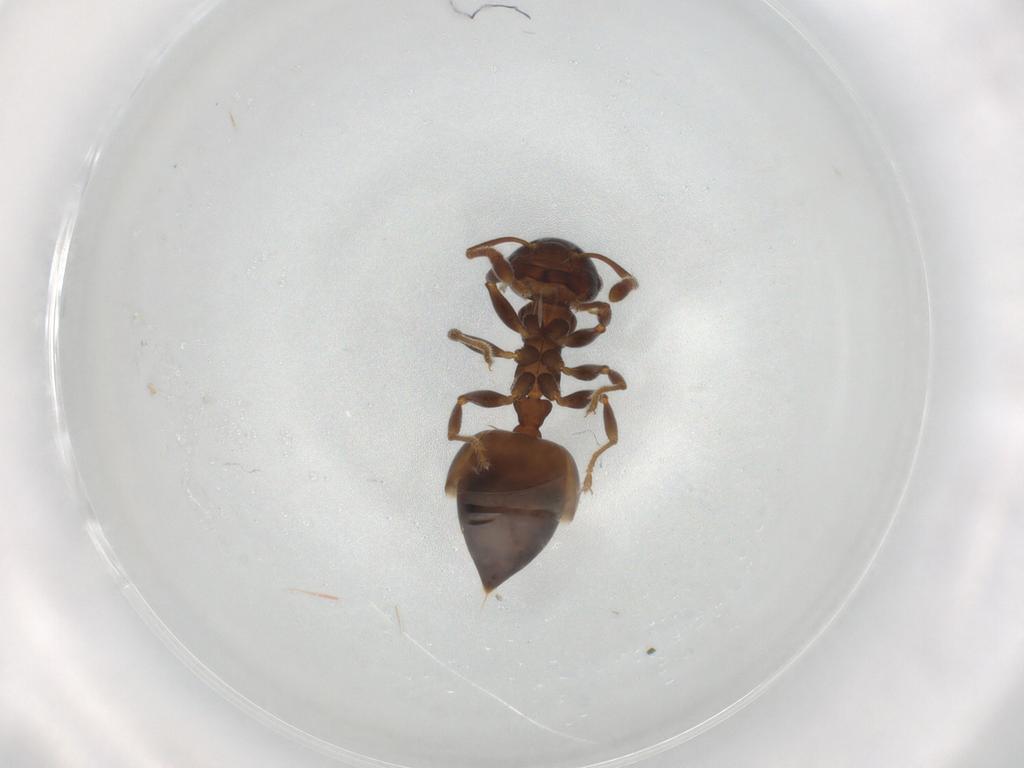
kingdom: Animalia
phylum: Arthropoda
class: Insecta
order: Hymenoptera
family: Formicidae
